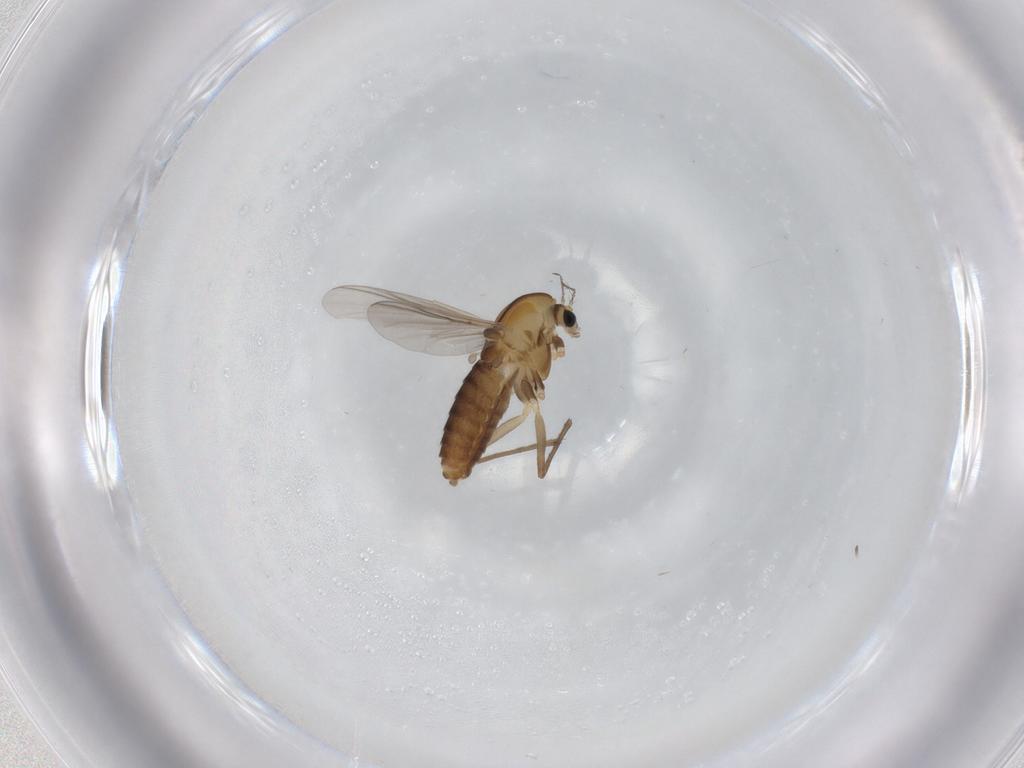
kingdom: Animalia
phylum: Arthropoda
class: Insecta
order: Diptera
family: Chironomidae
